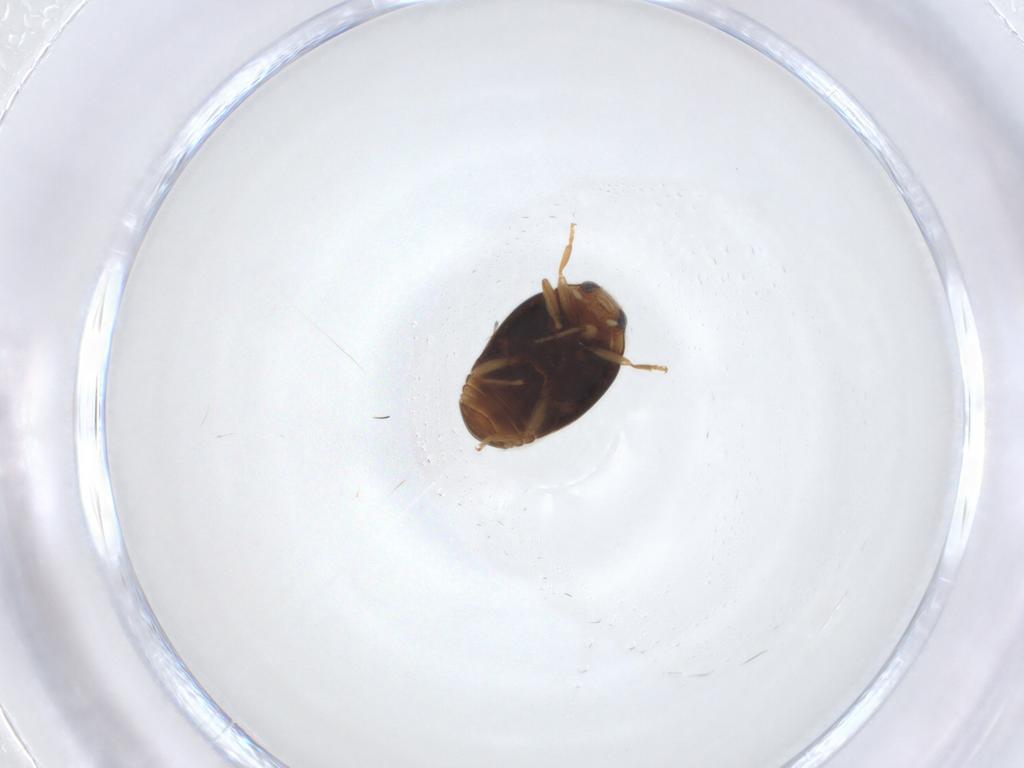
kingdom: Animalia
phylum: Arthropoda
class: Insecta
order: Coleoptera
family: Coccinellidae
